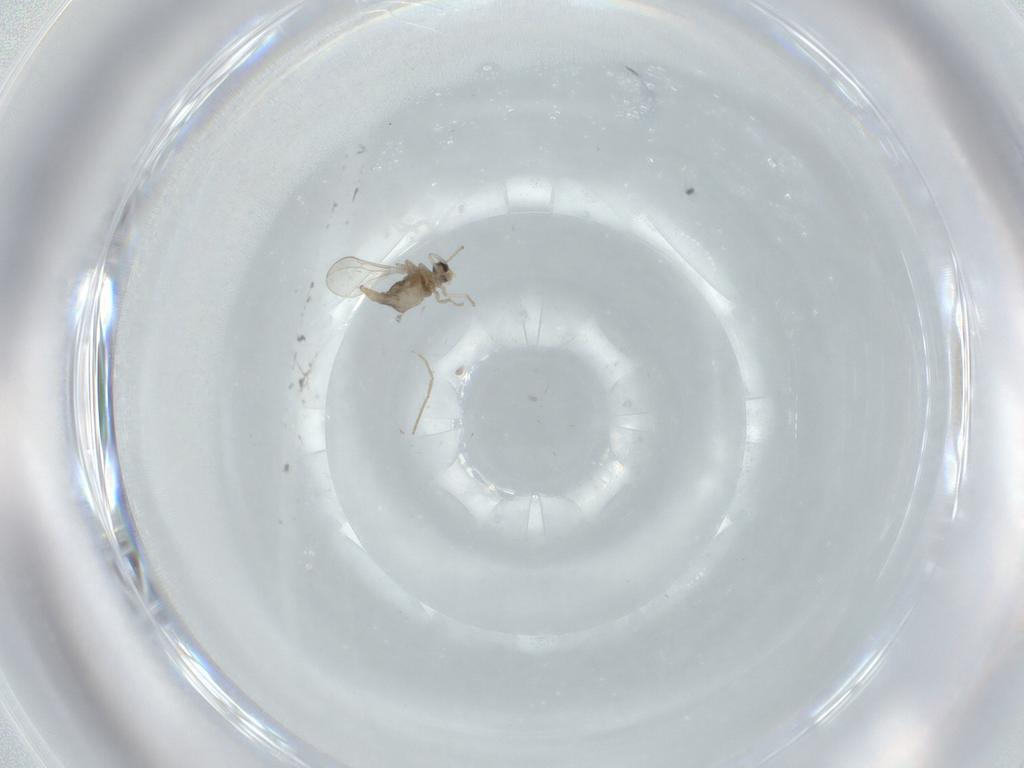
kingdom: Animalia
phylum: Arthropoda
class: Insecta
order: Diptera
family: Cecidomyiidae
